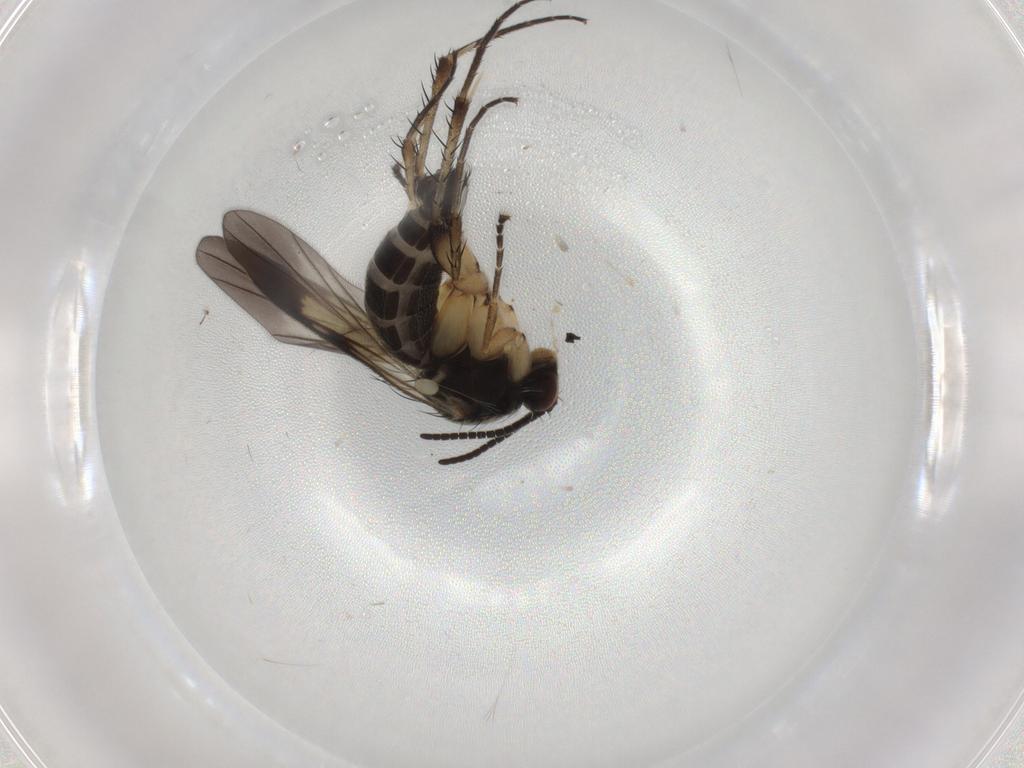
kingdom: Animalia
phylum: Arthropoda
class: Insecta
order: Diptera
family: Mycetophilidae
